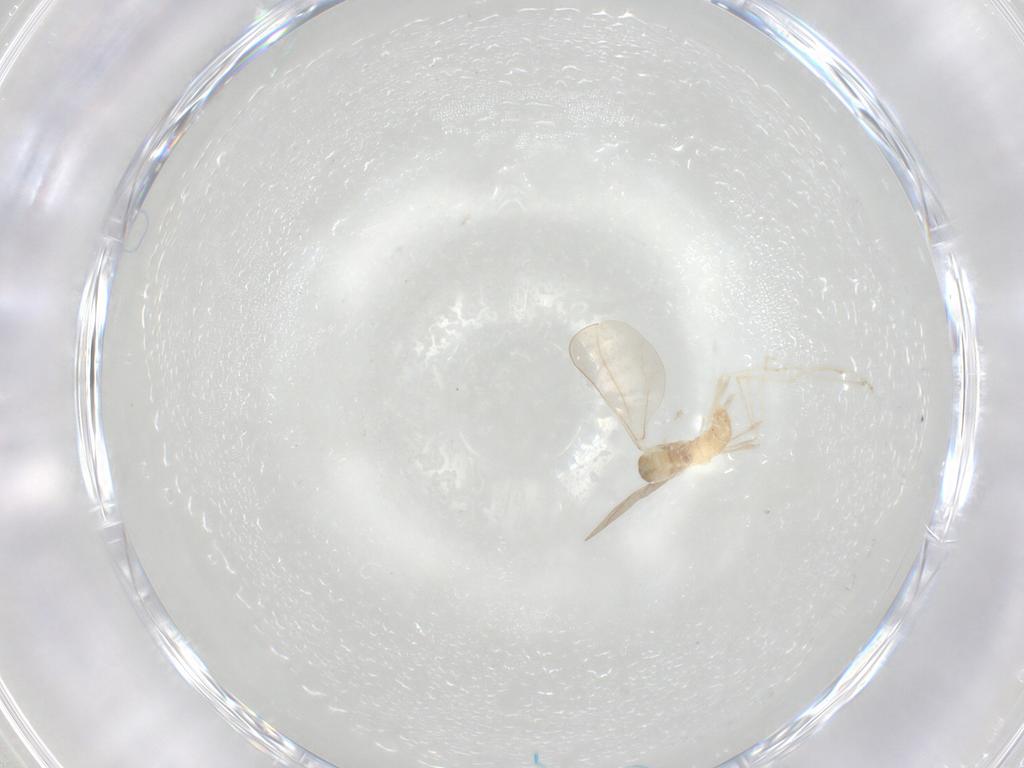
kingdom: Animalia
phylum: Arthropoda
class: Insecta
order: Diptera
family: Cecidomyiidae
